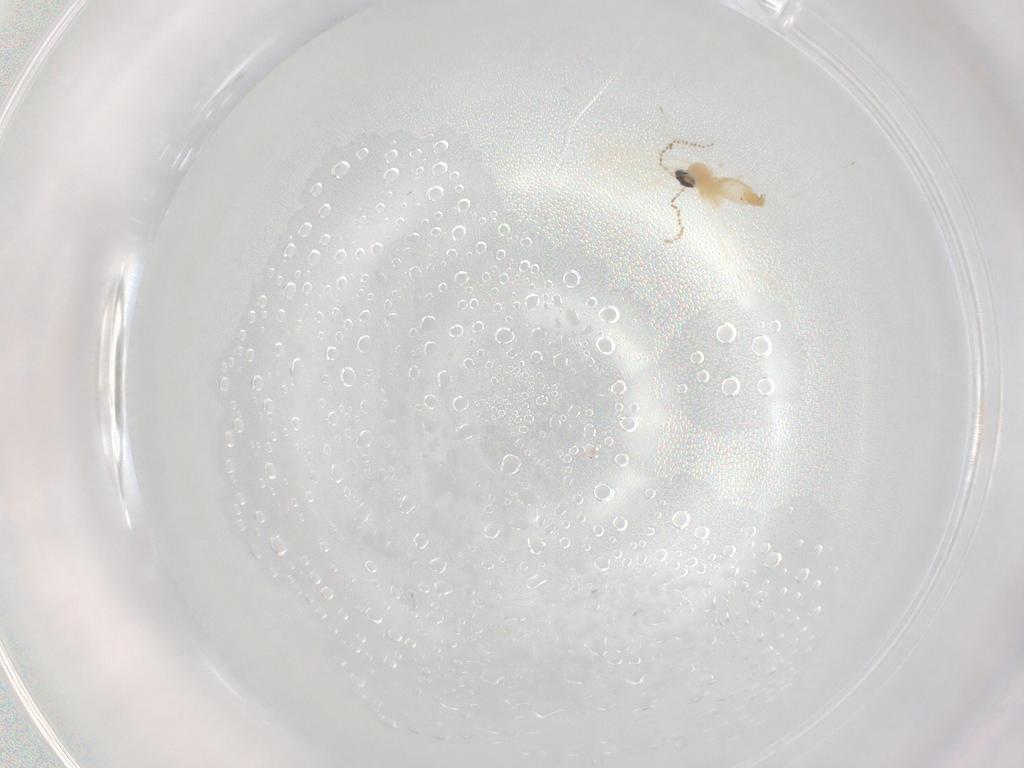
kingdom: Animalia
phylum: Arthropoda
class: Insecta
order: Diptera
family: Cecidomyiidae
